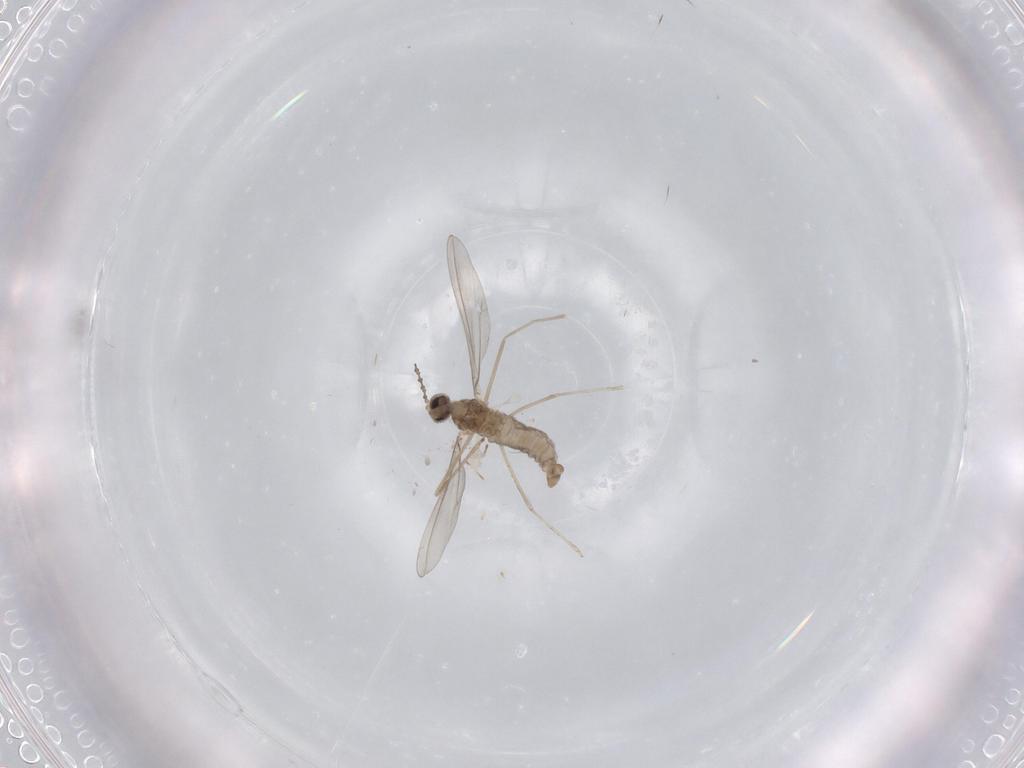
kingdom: Animalia
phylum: Arthropoda
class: Insecta
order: Diptera
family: Cecidomyiidae
